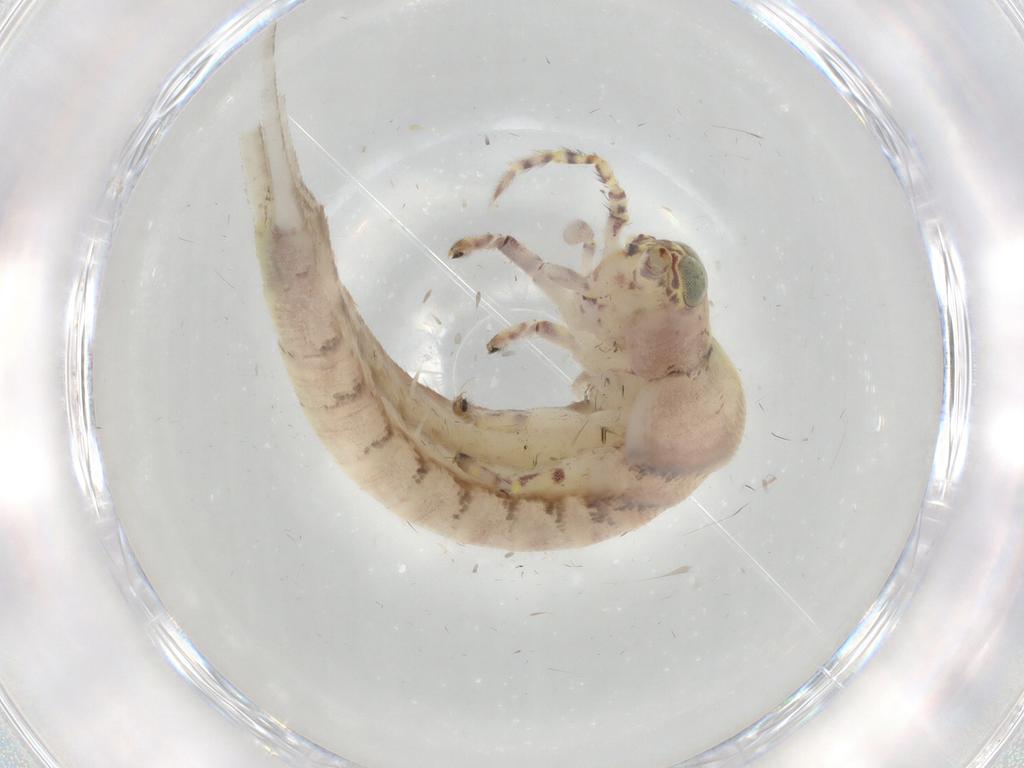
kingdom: Animalia
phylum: Arthropoda
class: Insecta
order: Archaeognatha
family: Machilidae
